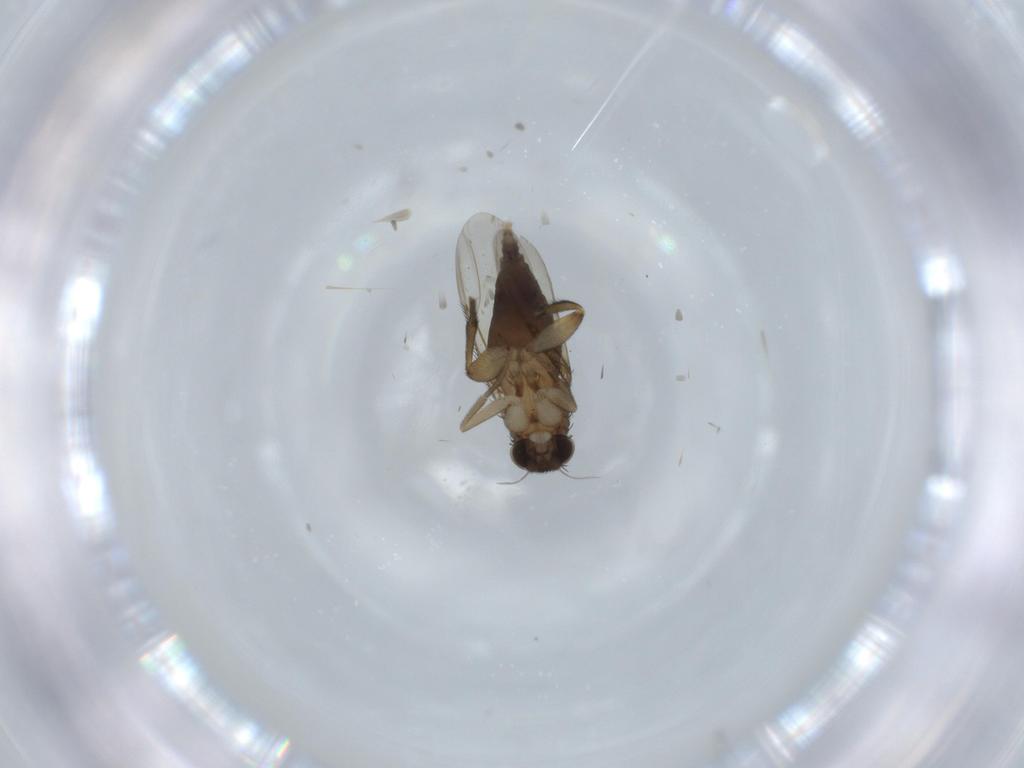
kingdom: Animalia
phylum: Arthropoda
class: Insecta
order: Diptera
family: Phoridae
